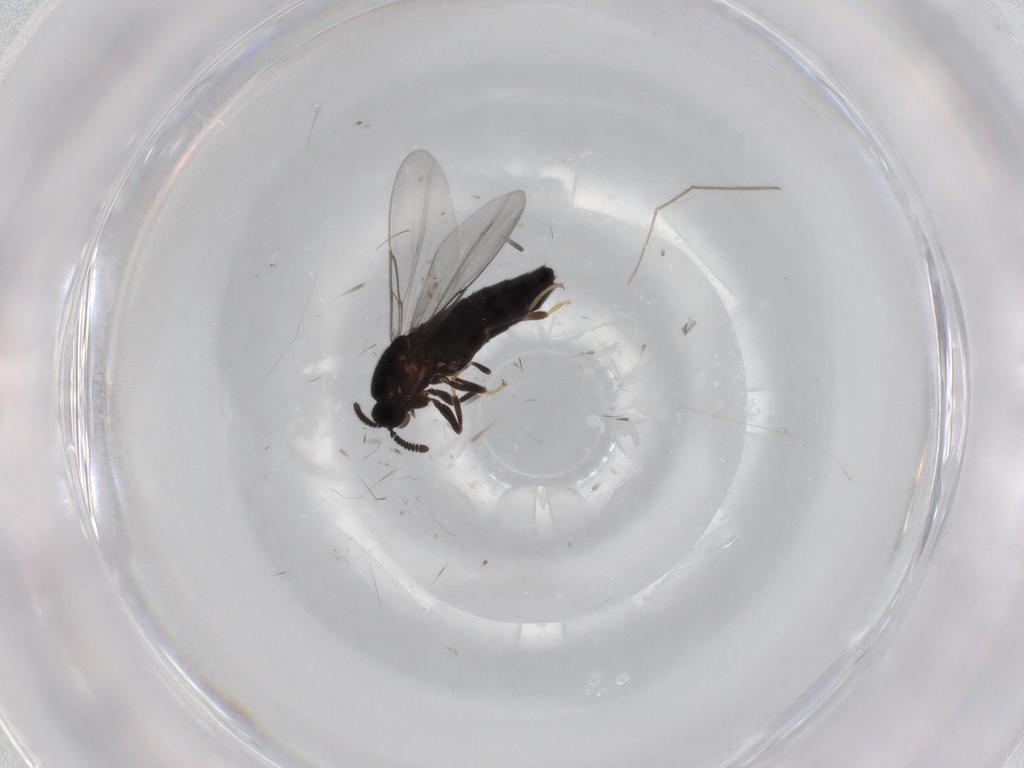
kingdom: Animalia
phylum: Arthropoda
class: Insecta
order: Diptera
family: Scatopsidae
